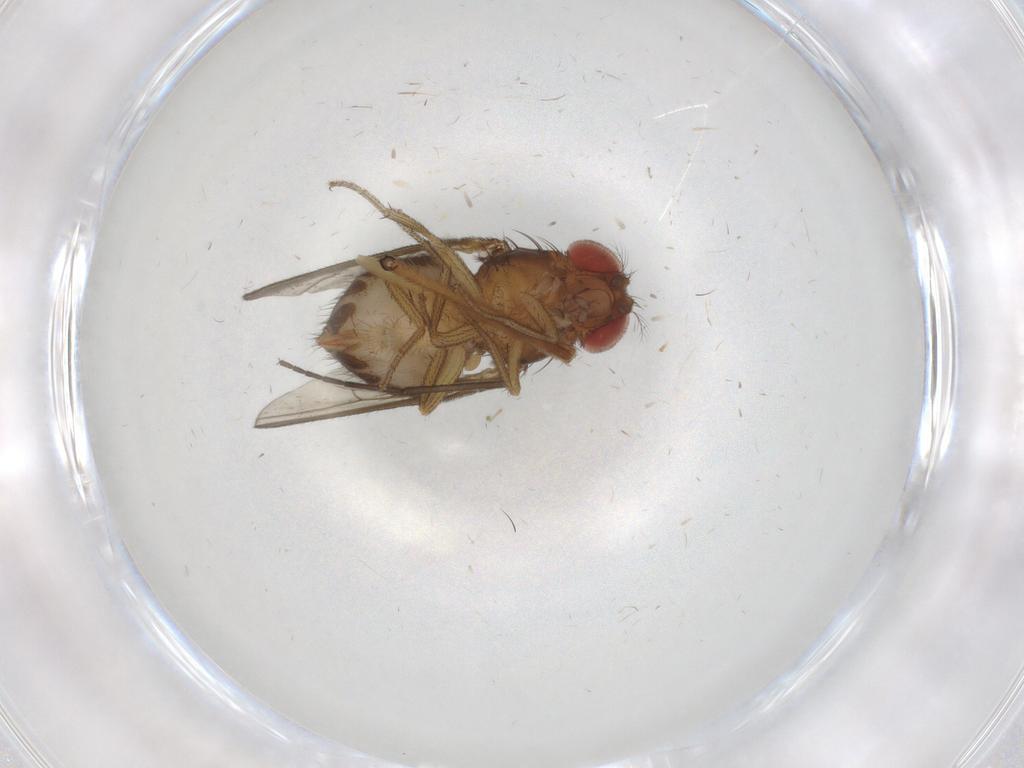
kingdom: Animalia
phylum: Arthropoda
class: Insecta
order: Diptera
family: Drosophilidae
